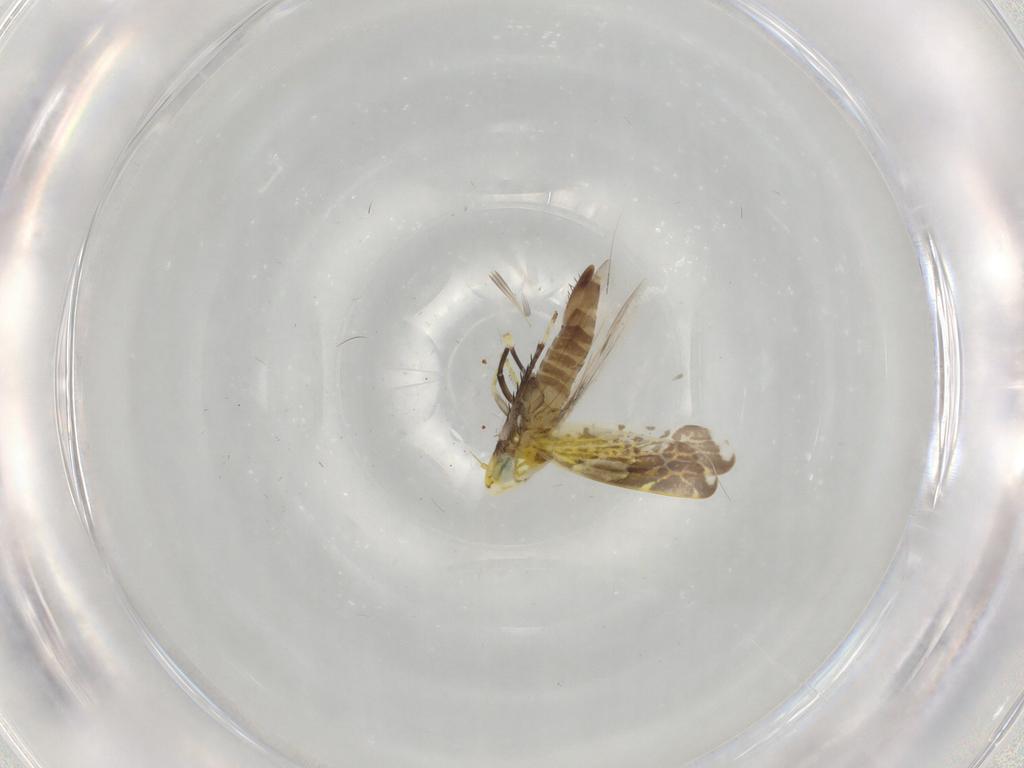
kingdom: Animalia
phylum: Arthropoda
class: Insecta
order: Hemiptera
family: Cicadellidae
